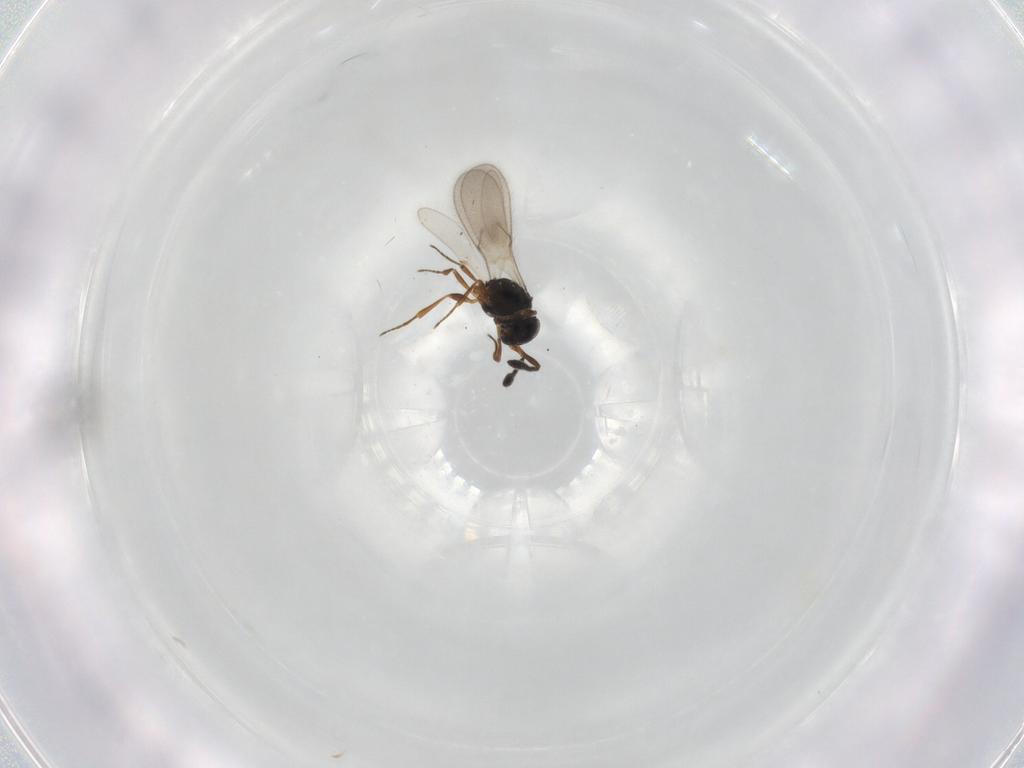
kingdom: Animalia
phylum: Arthropoda
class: Insecta
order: Hymenoptera
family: Scelionidae
